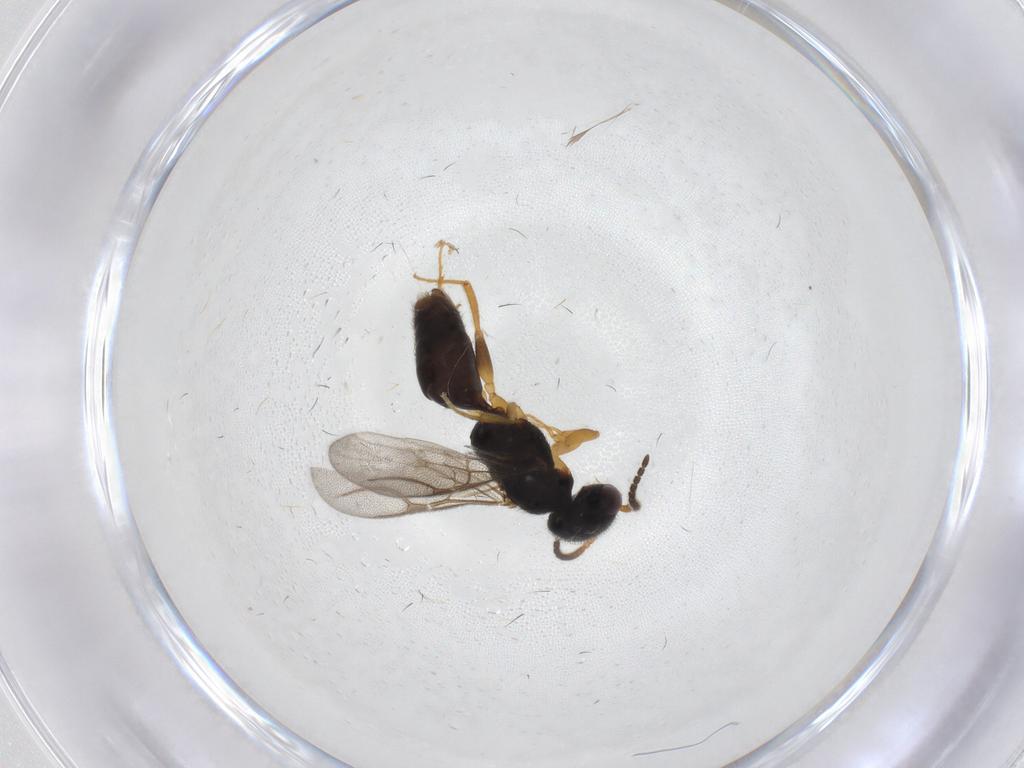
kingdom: Animalia
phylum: Arthropoda
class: Insecta
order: Hymenoptera
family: Bethylidae
